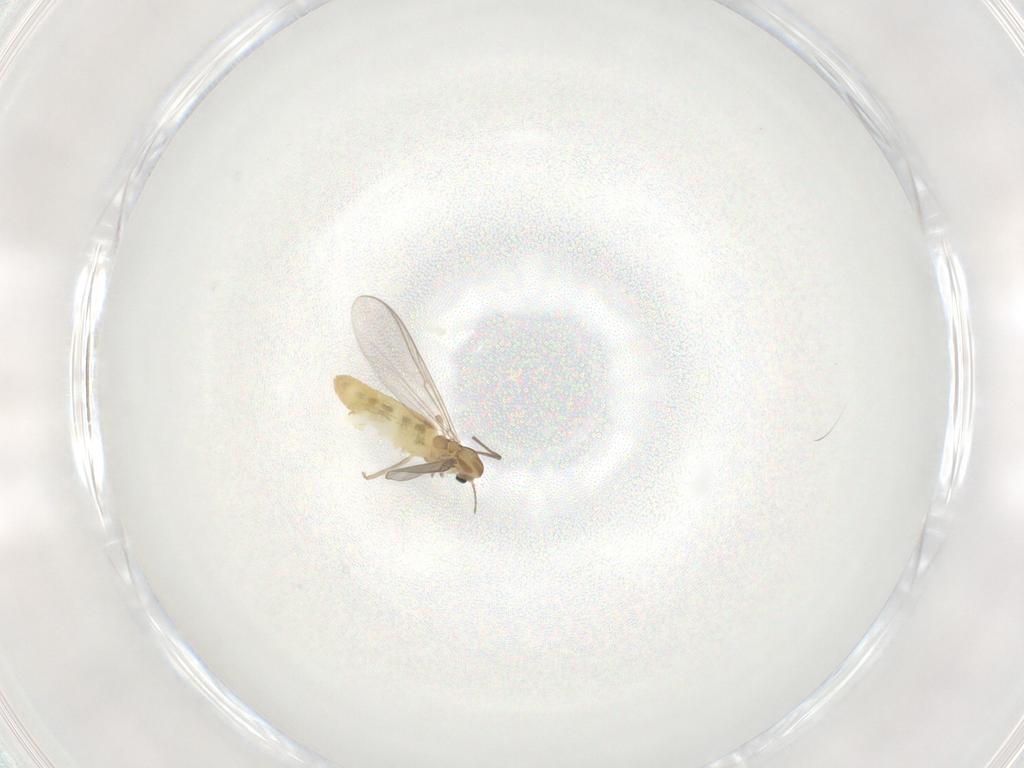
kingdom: Animalia
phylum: Arthropoda
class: Insecta
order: Diptera
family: Chironomidae
